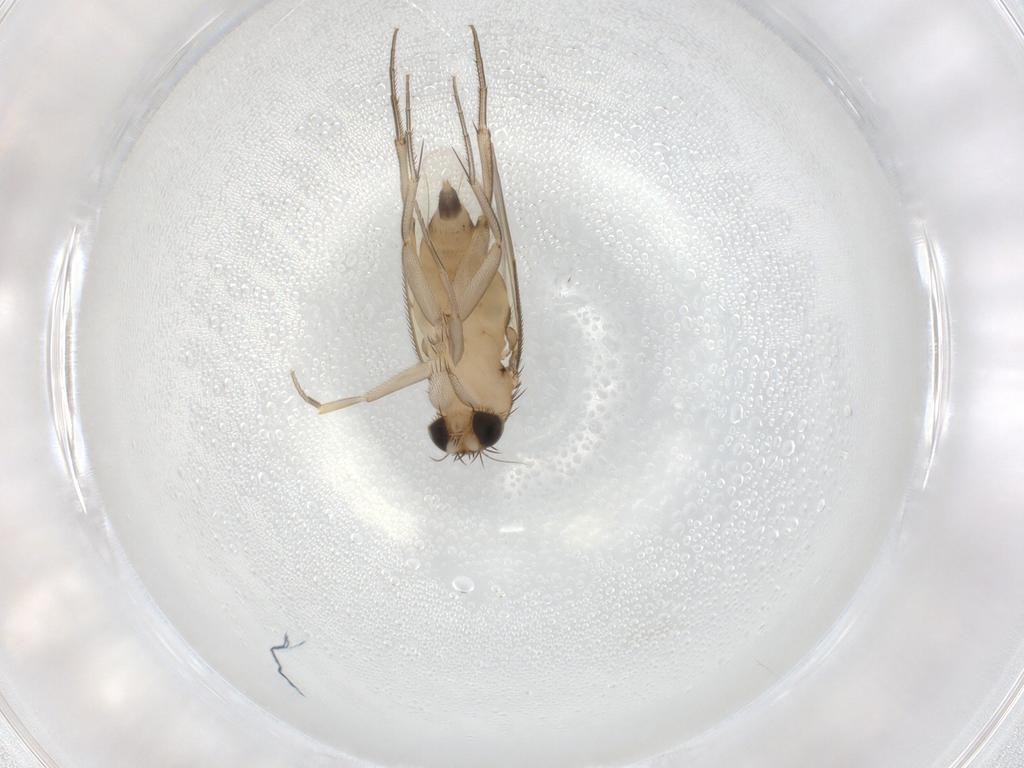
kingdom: Animalia
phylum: Arthropoda
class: Insecta
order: Diptera
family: Phoridae
